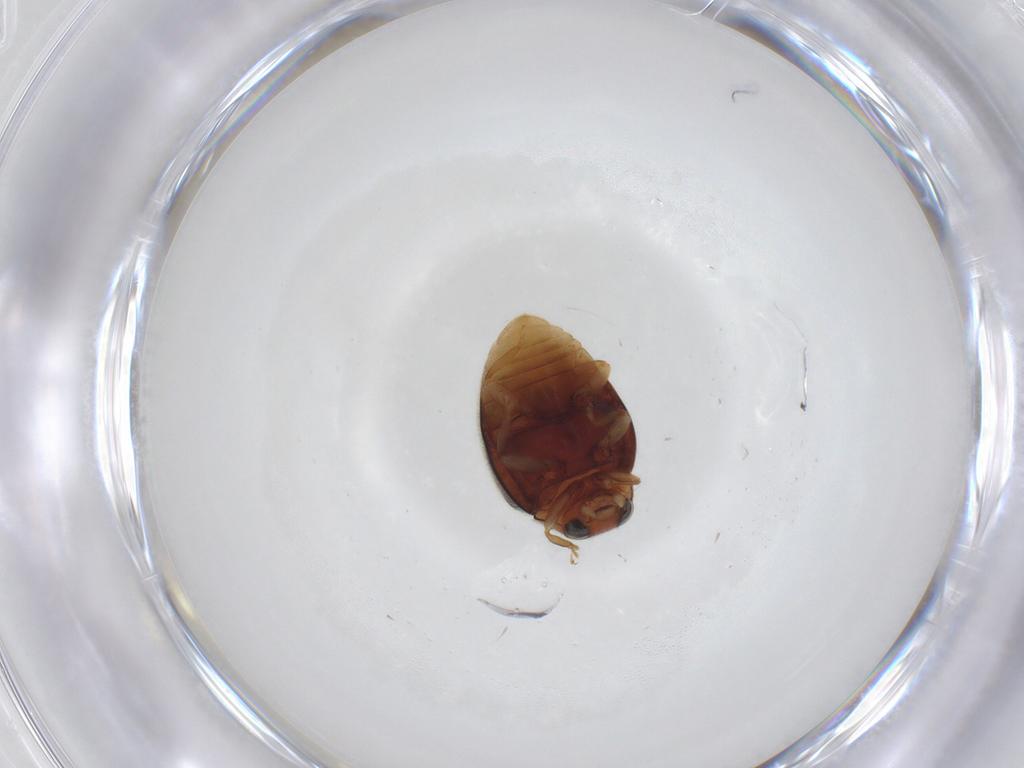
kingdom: Animalia
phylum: Arthropoda
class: Insecta
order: Coleoptera
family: Coccinellidae
